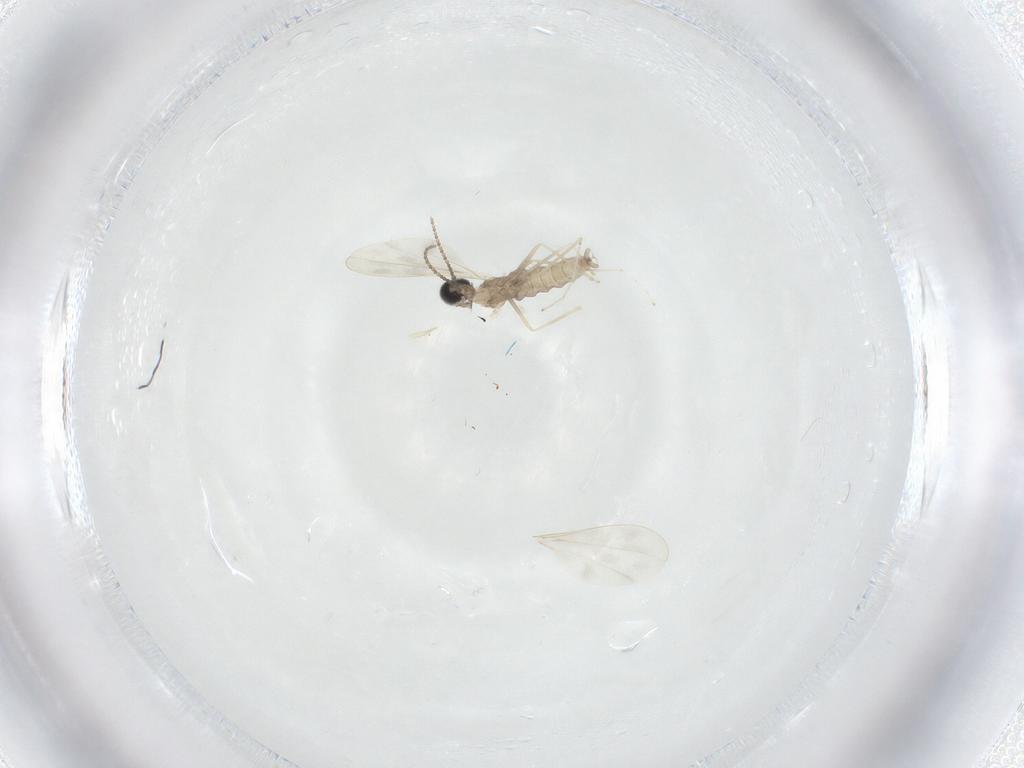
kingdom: Animalia
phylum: Arthropoda
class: Insecta
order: Diptera
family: Cecidomyiidae
